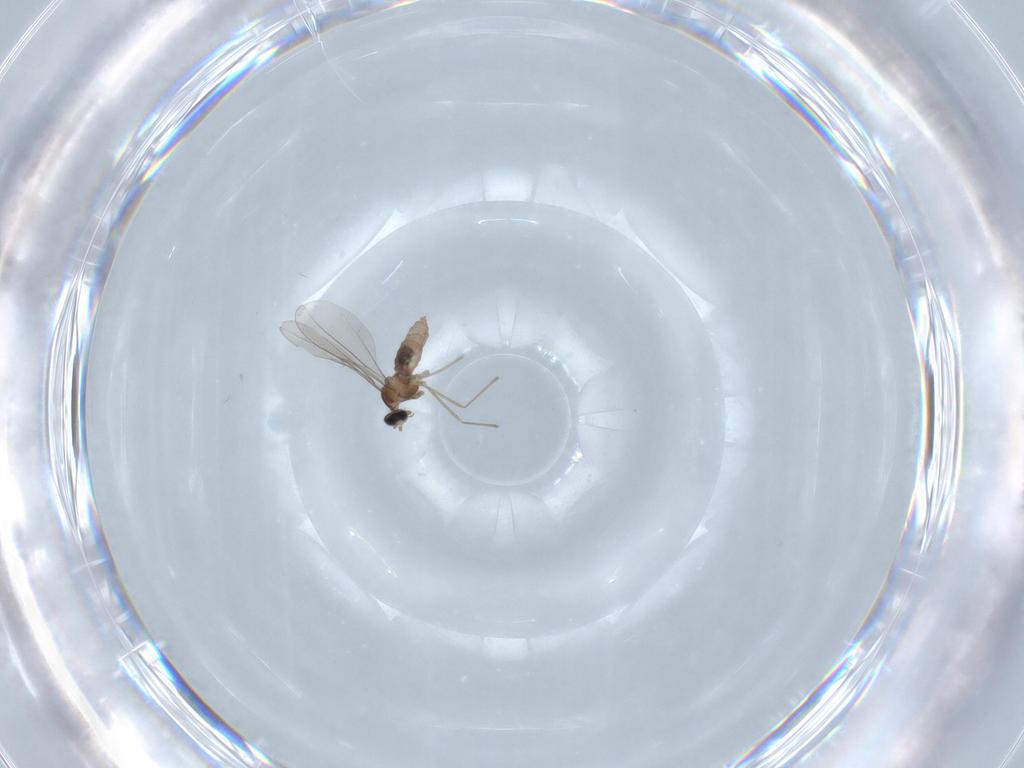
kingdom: Animalia
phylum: Arthropoda
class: Insecta
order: Diptera
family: Cecidomyiidae
